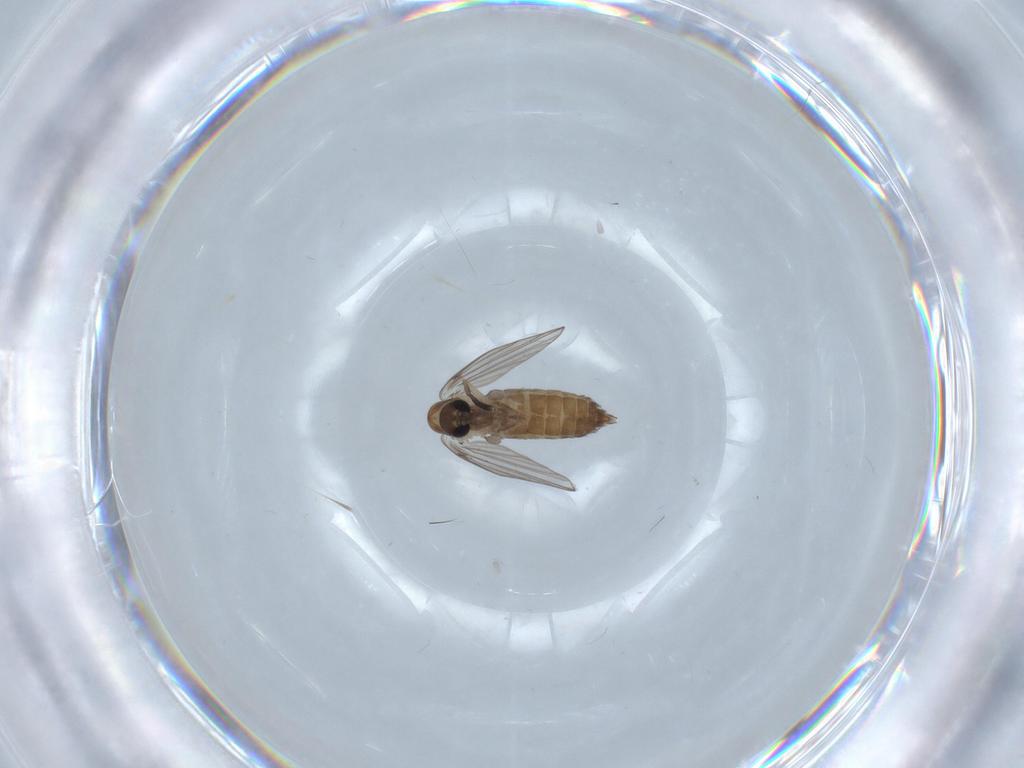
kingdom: Animalia
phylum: Arthropoda
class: Insecta
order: Diptera
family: Psychodidae
